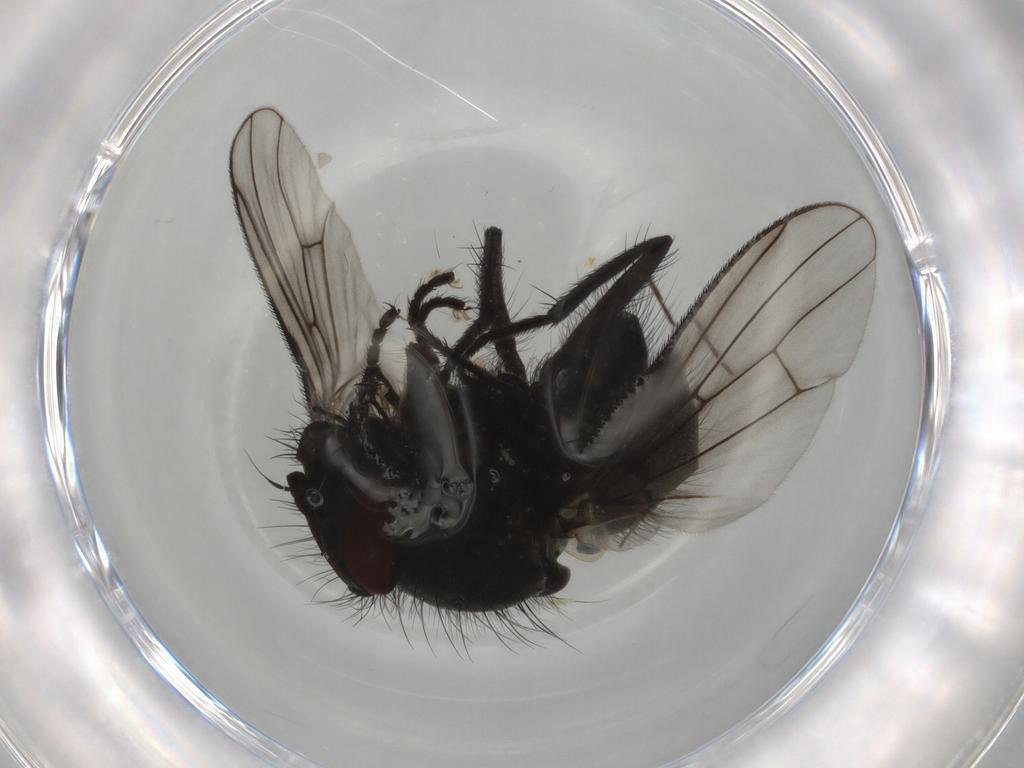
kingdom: Animalia
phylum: Arthropoda
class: Insecta
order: Diptera
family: Muscidae
